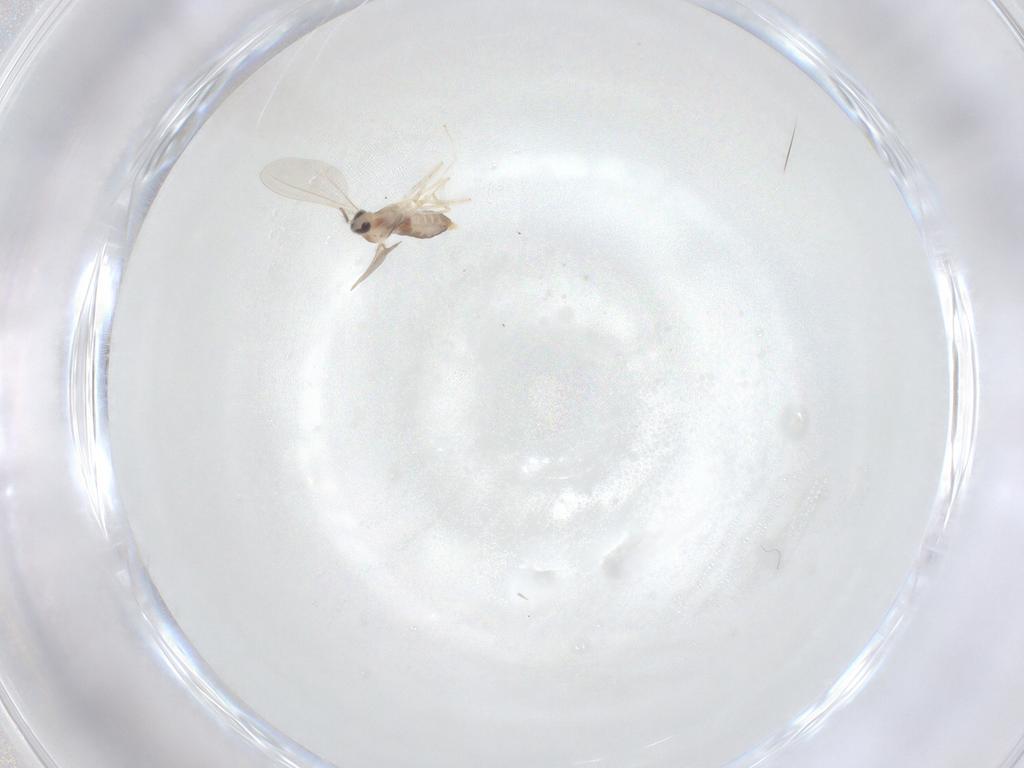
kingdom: Animalia
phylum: Arthropoda
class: Insecta
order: Diptera
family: Cecidomyiidae
